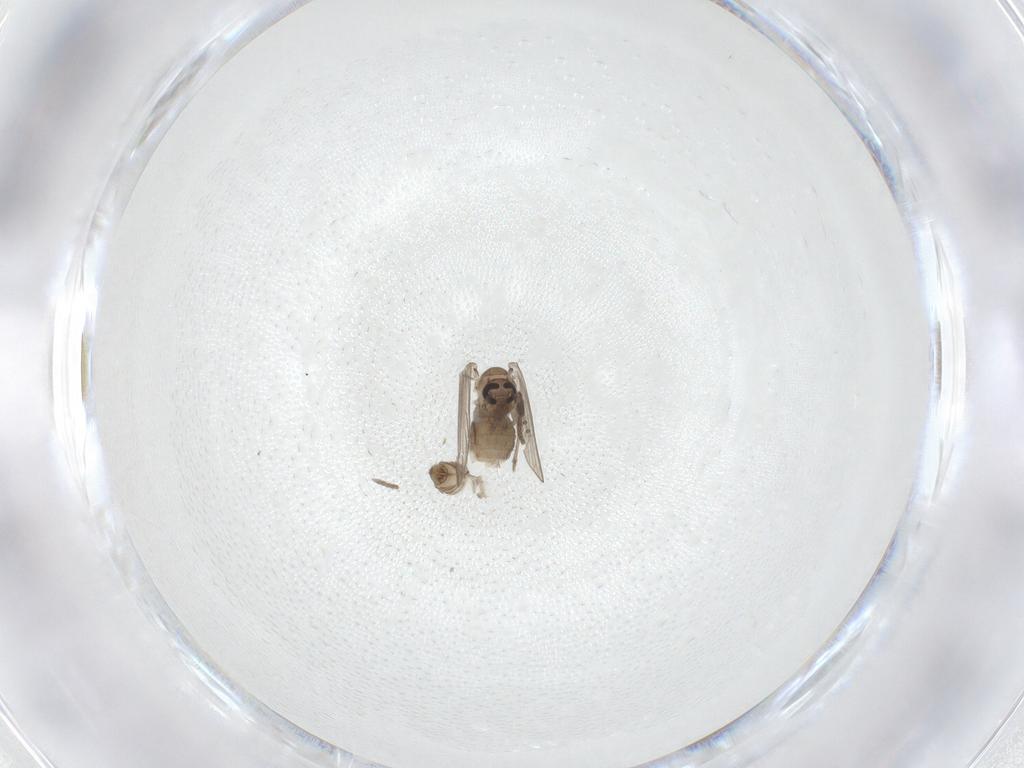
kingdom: Animalia
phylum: Arthropoda
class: Insecta
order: Diptera
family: Psychodidae
